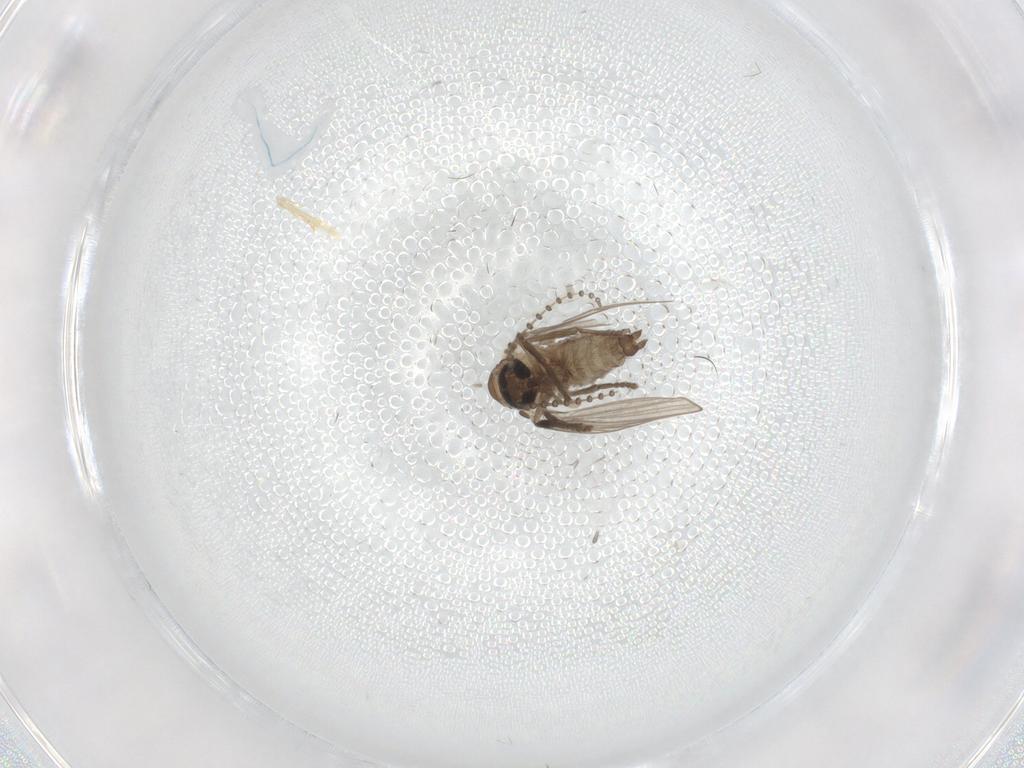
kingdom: Animalia
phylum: Arthropoda
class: Insecta
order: Diptera
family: Psychodidae
